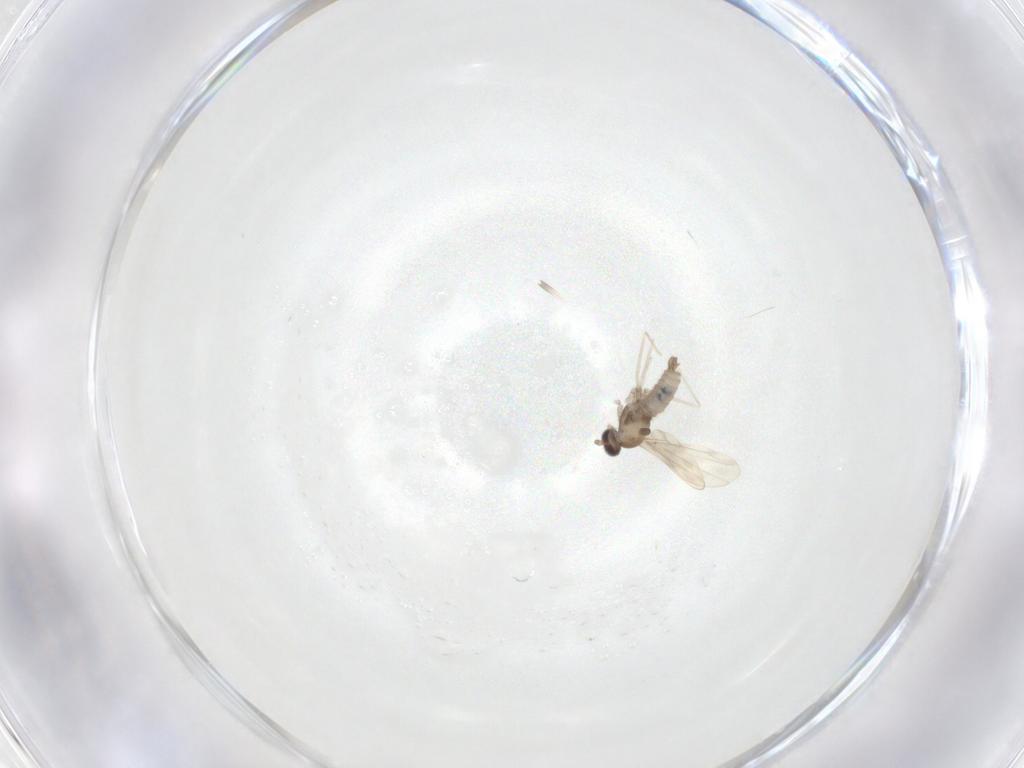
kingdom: Animalia
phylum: Arthropoda
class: Insecta
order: Diptera
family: Cecidomyiidae
